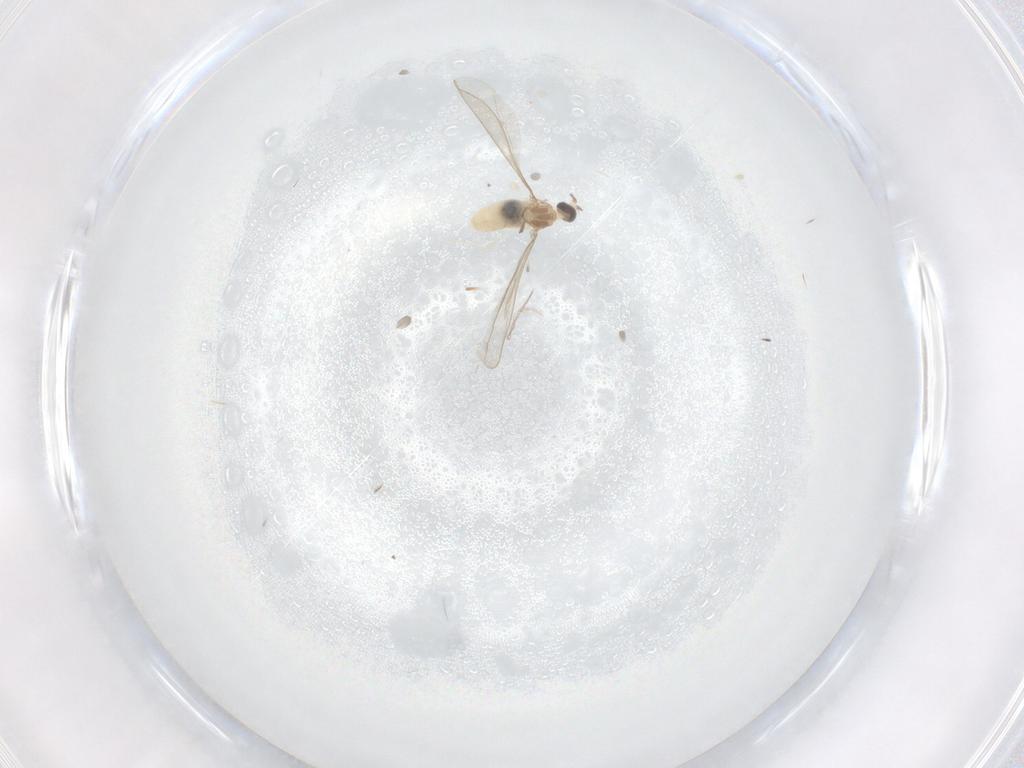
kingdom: Animalia
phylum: Arthropoda
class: Insecta
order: Diptera
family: Cecidomyiidae
